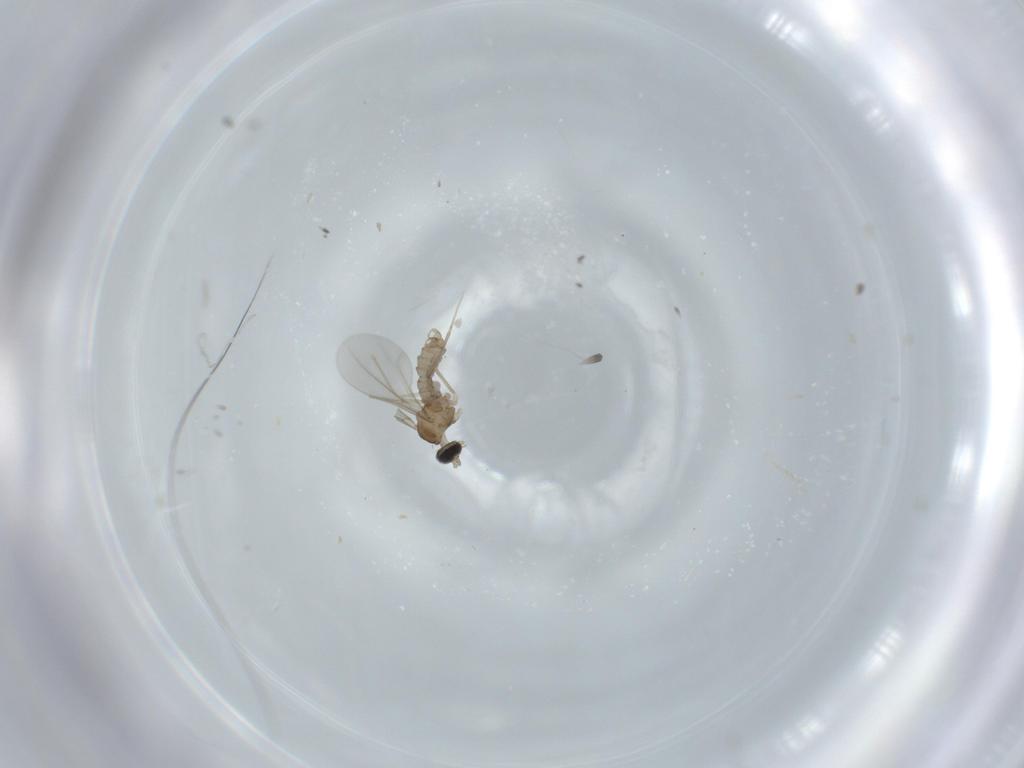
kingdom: Animalia
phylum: Arthropoda
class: Insecta
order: Diptera
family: Cecidomyiidae
